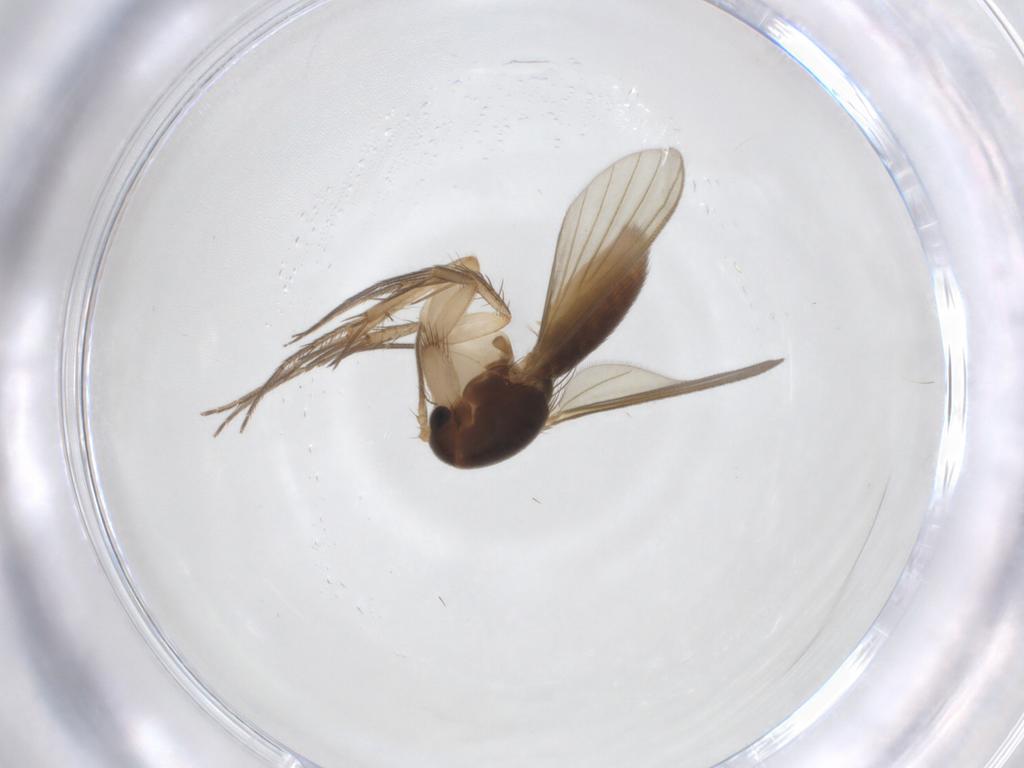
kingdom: Animalia
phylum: Arthropoda
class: Insecta
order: Diptera
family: Mycetophilidae
